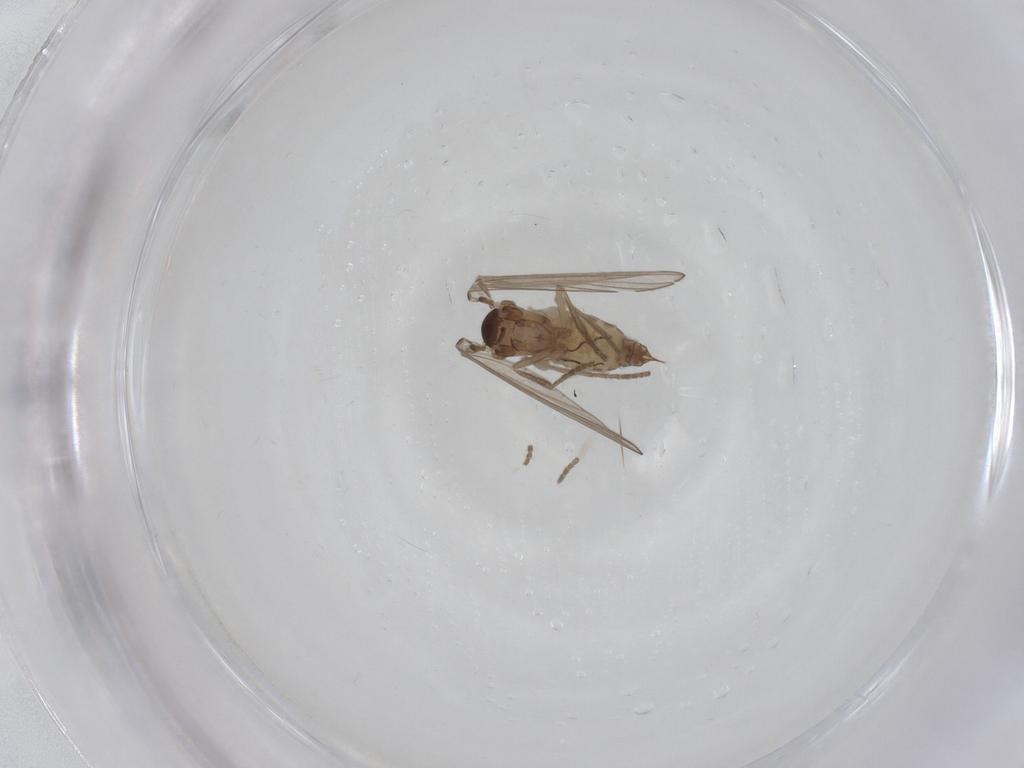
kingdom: Animalia
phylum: Arthropoda
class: Insecta
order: Diptera
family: Psychodidae
